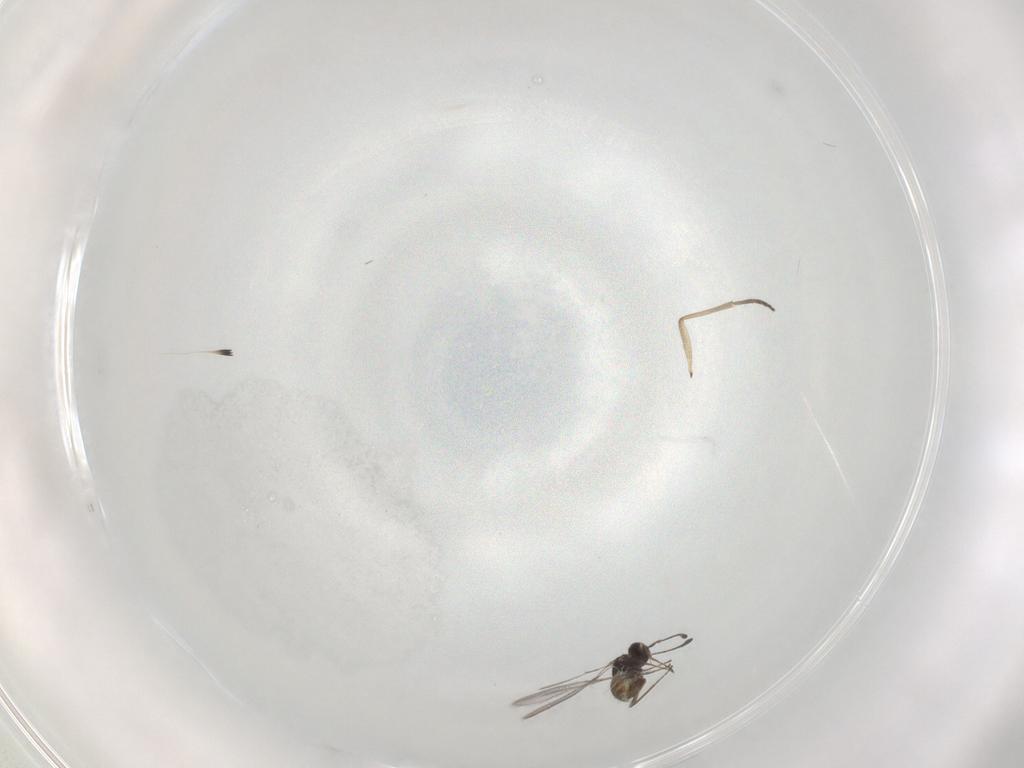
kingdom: Animalia
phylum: Arthropoda
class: Insecta
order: Hymenoptera
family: Mymaridae
